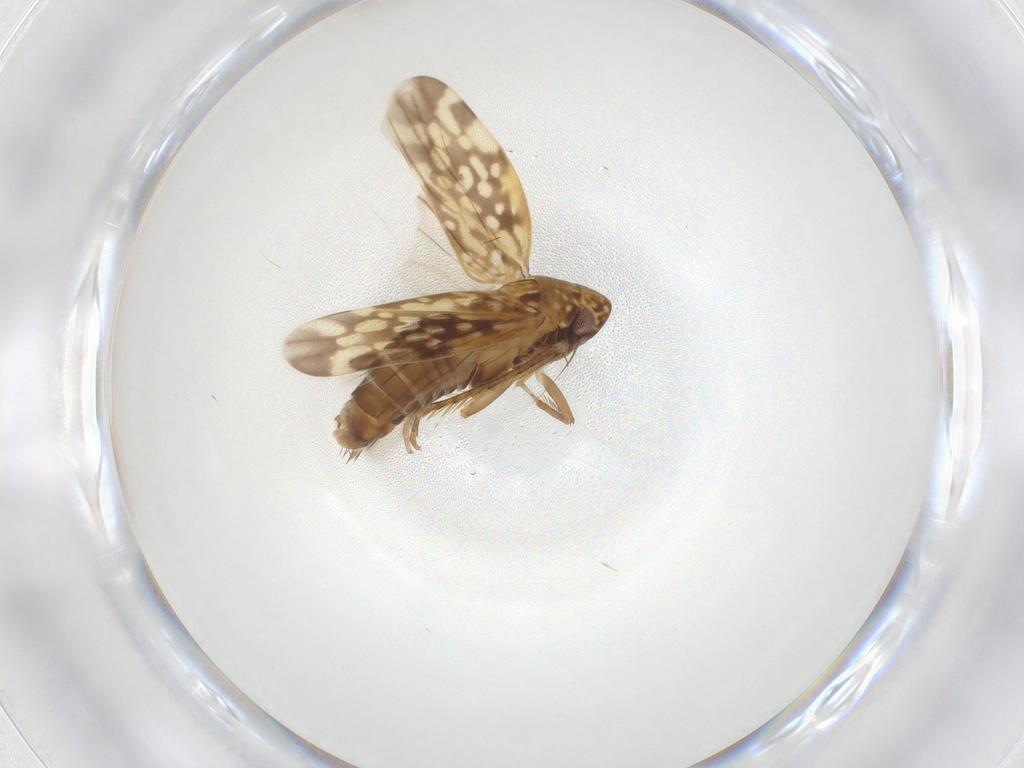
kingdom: Animalia
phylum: Arthropoda
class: Insecta
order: Hemiptera
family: Cicadellidae
